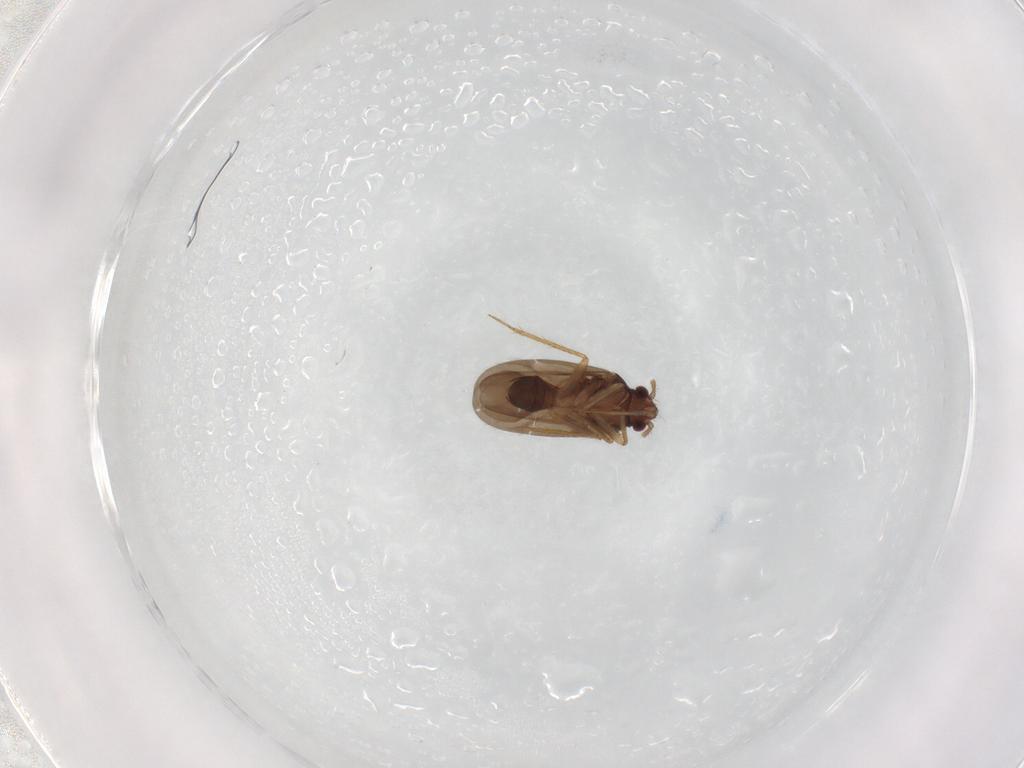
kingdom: Animalia
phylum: Arthropoda
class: Insecta
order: Hemiptera
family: Ceratocombidae
